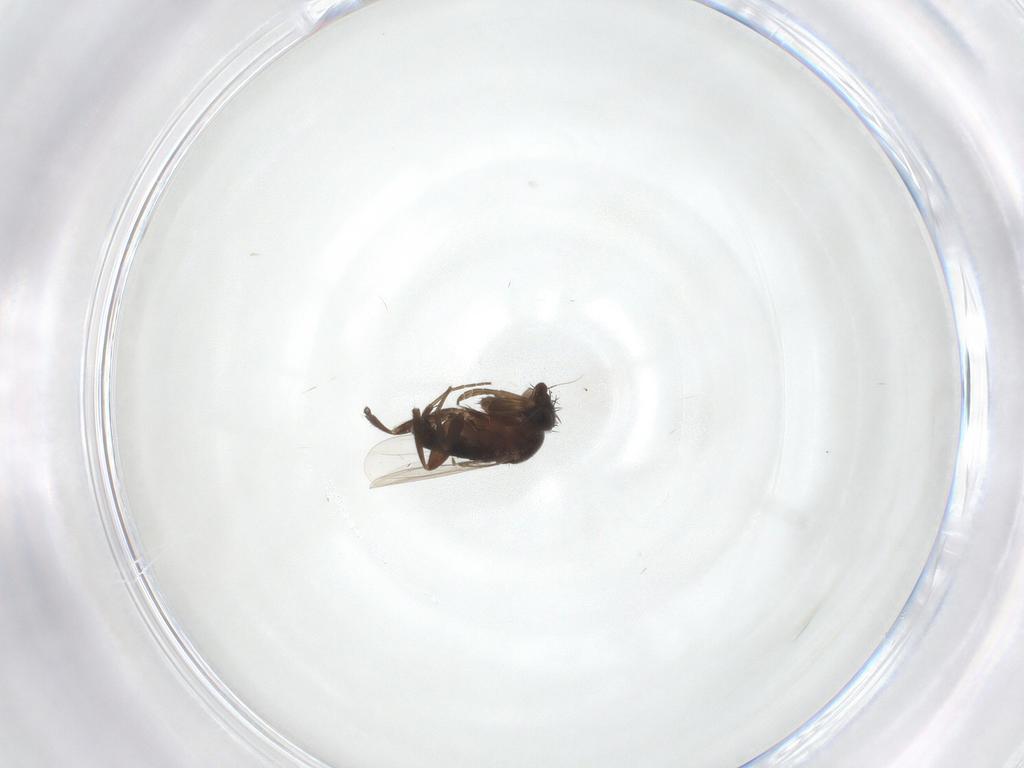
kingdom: Animalia
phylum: Arthropoda
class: Insecta
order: Diptera
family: Phoridae
